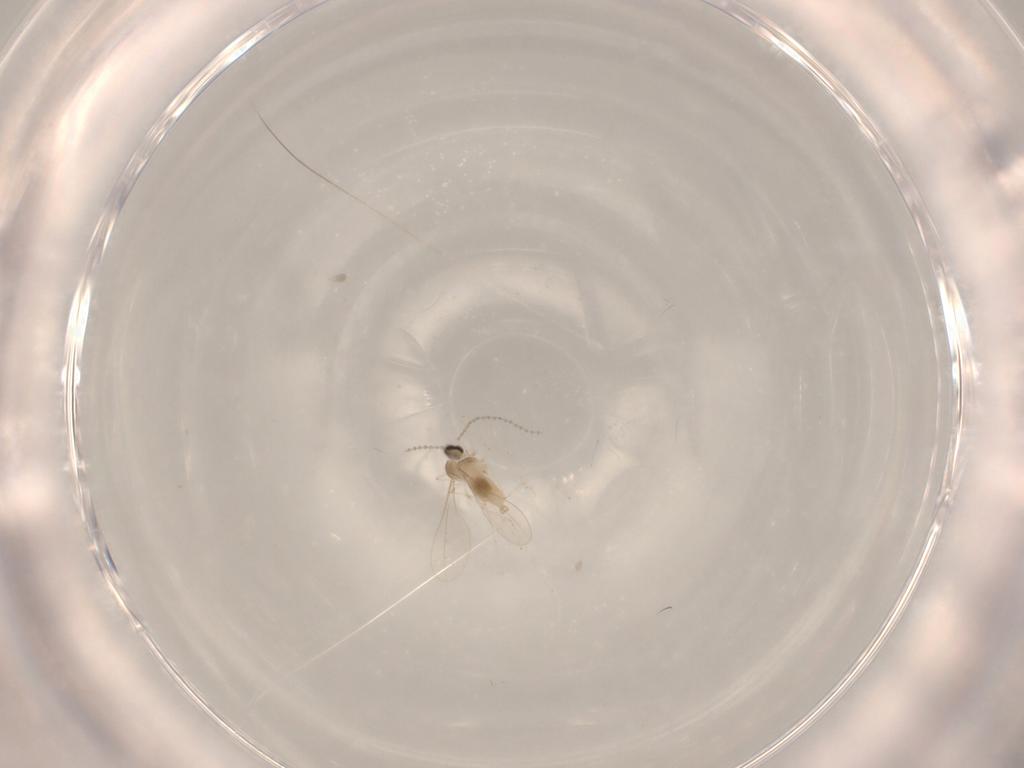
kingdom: Animalia
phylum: Arthropoda
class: Insecta
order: Diptera
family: Cecidomyiidae
